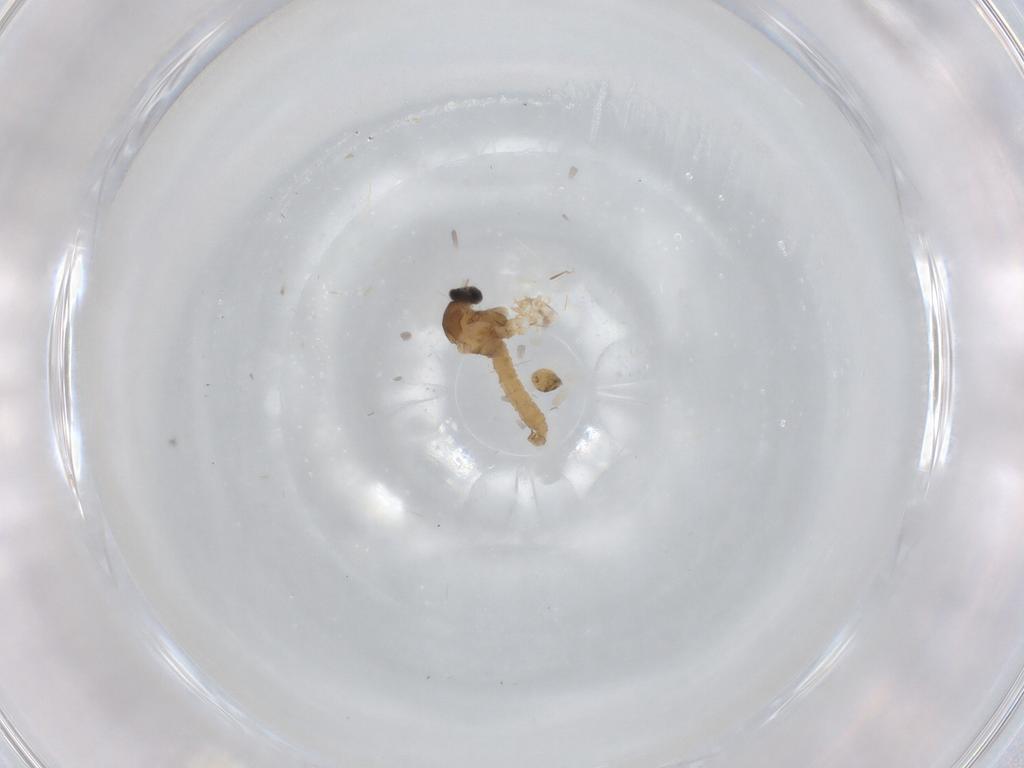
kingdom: Animalia
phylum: Arthropoda
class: Insecta
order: Diptera
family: Cecidomyiidae
